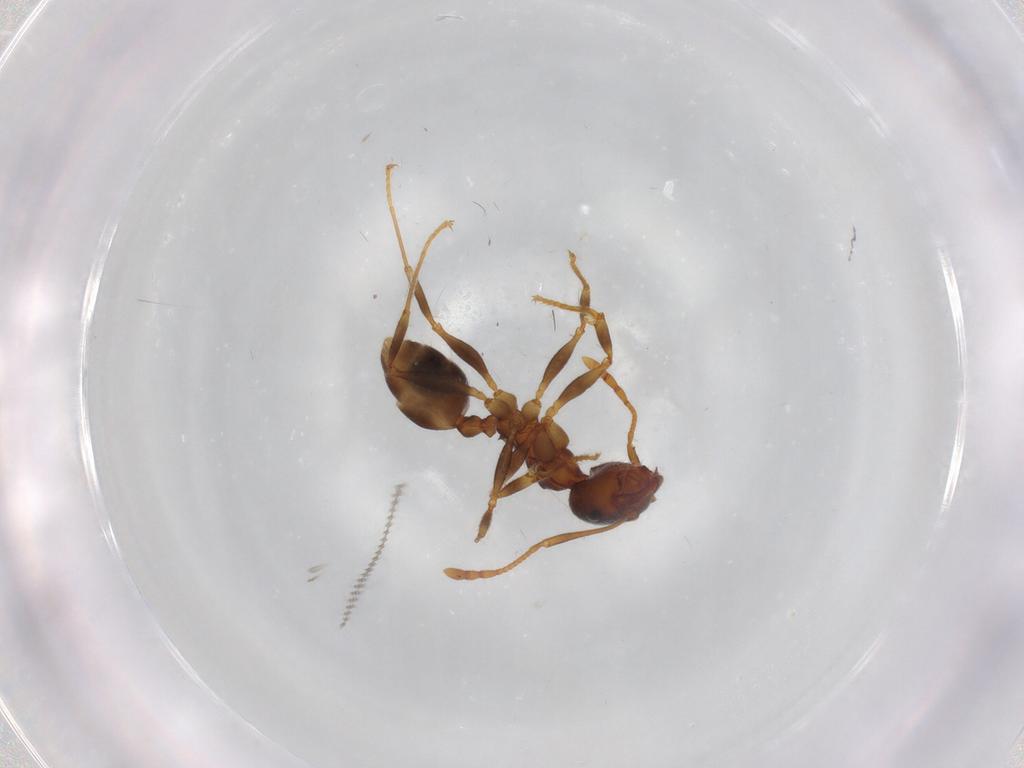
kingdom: Animalia
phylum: Arthropoda
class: Insecta
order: Hymenoptera
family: Formicidae
